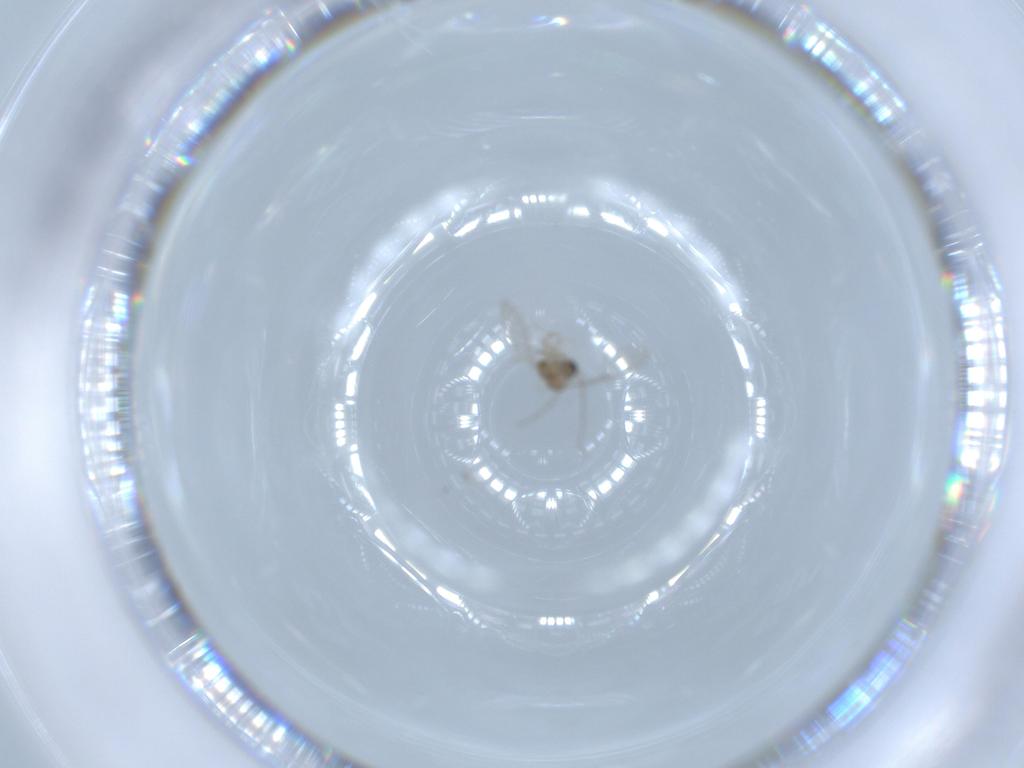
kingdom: Animalia
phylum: Arthropoda
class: Insecta
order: Diptera
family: Cecidomyiidae
